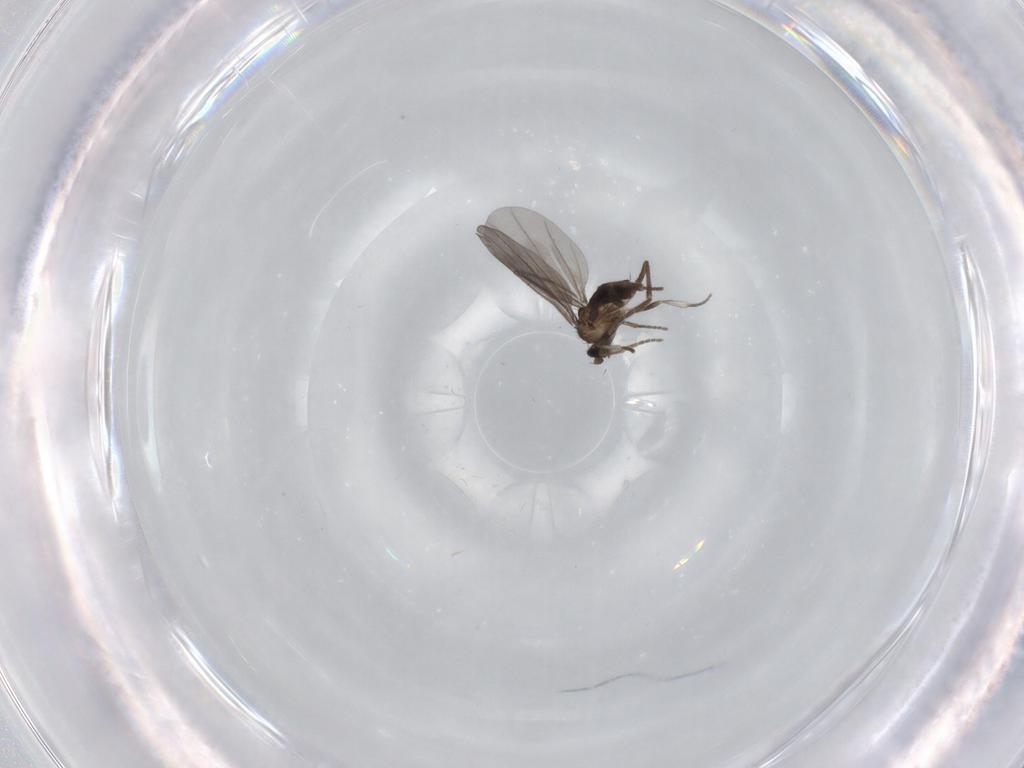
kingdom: Animalia
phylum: Arthropoda
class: Insecta
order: Diptera
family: Phoridae
